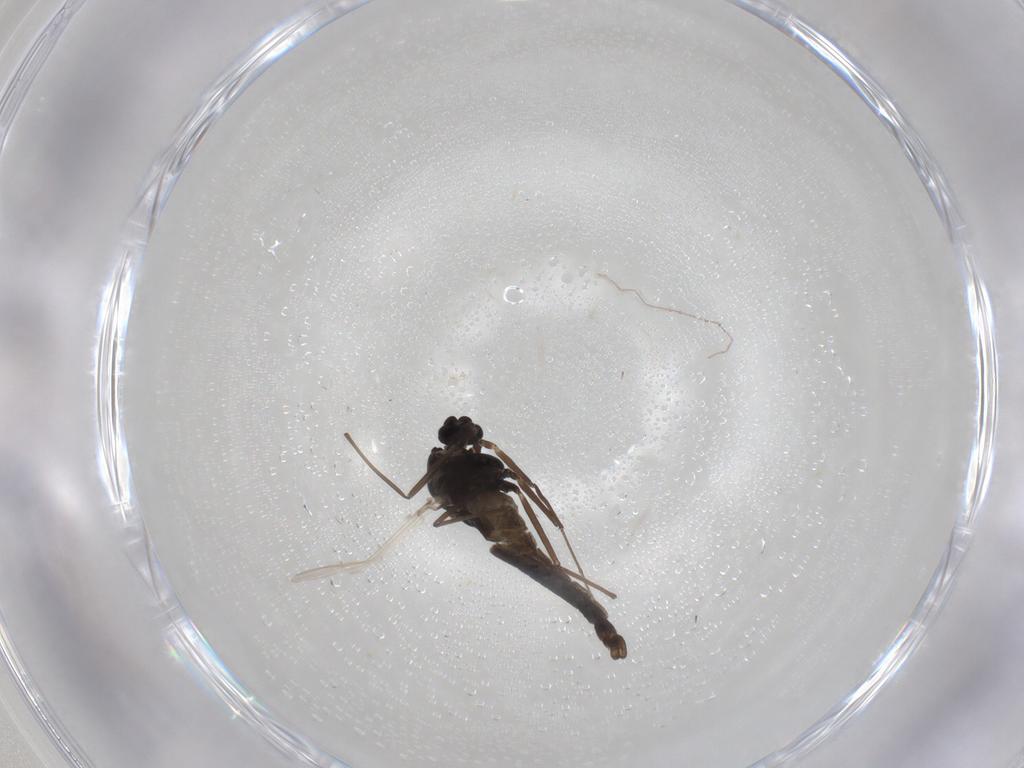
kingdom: Animalia
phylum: Arthropoda
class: Insecta
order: Diptera
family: Chironomidae
